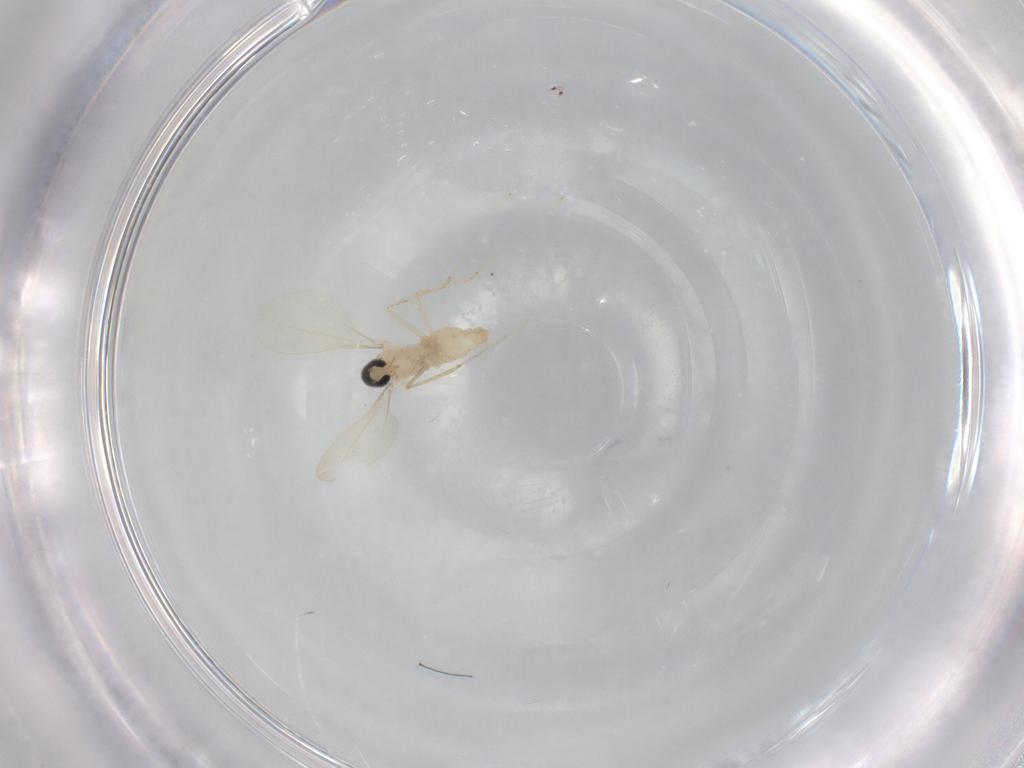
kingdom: Animalia
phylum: Arthropoda
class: Insecta
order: Diptera
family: Cecidomyiidae
